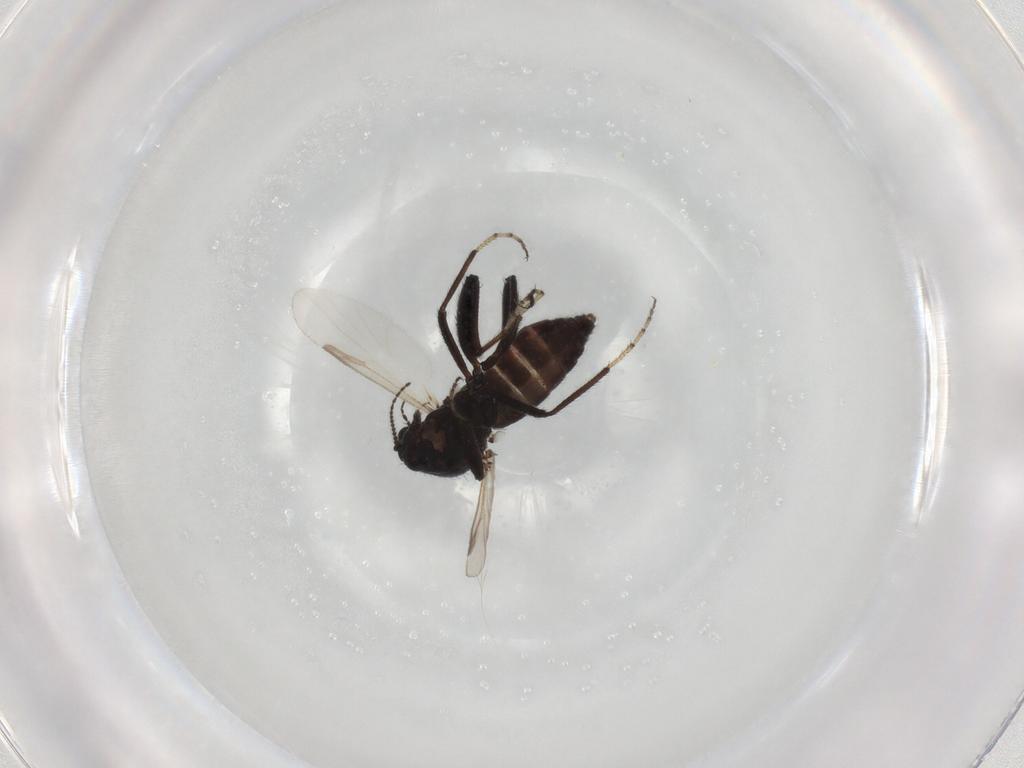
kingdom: Animalia
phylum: Arthropoda
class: Insecta
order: Diptera
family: Ceratopogonidae
